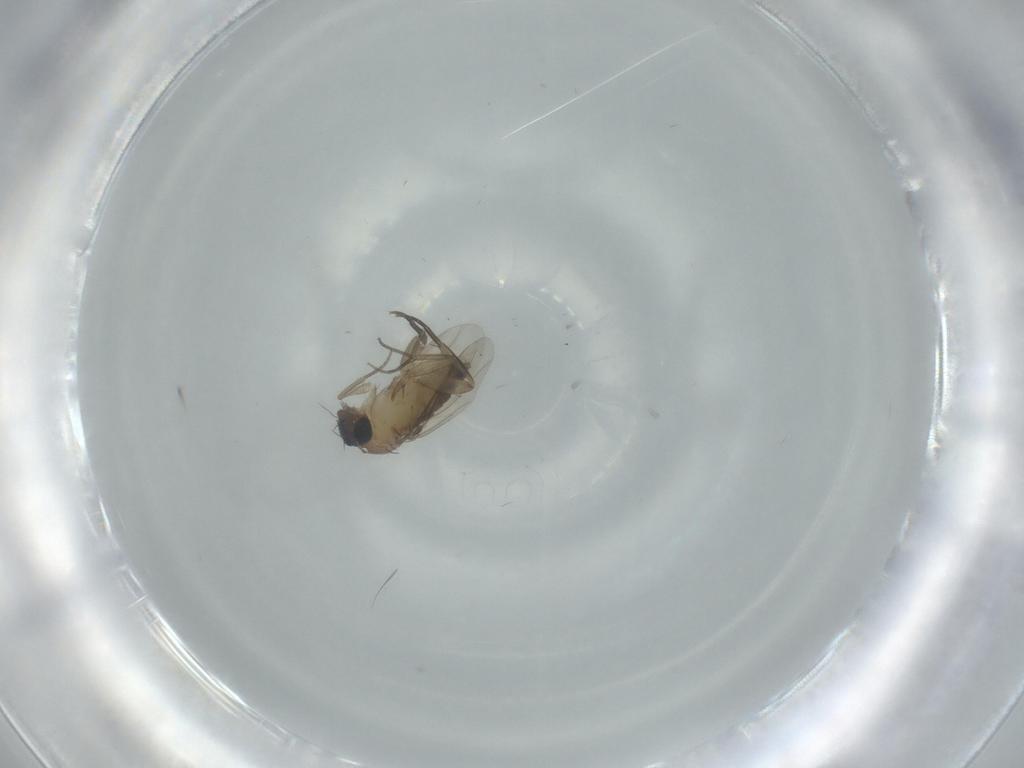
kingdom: Animalia
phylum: Arthropoda
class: Insecta
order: Diptera
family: Phoridae
